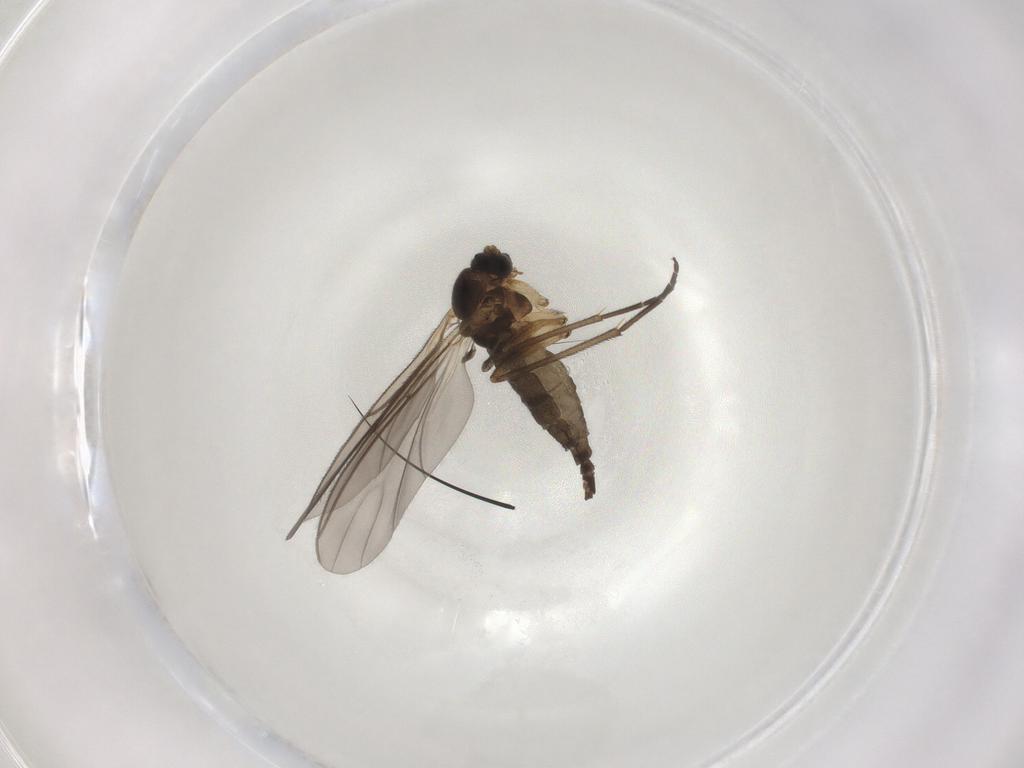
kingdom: Animalia
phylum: Arthropoda
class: Insecta
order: Diptera
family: Sciaridae
